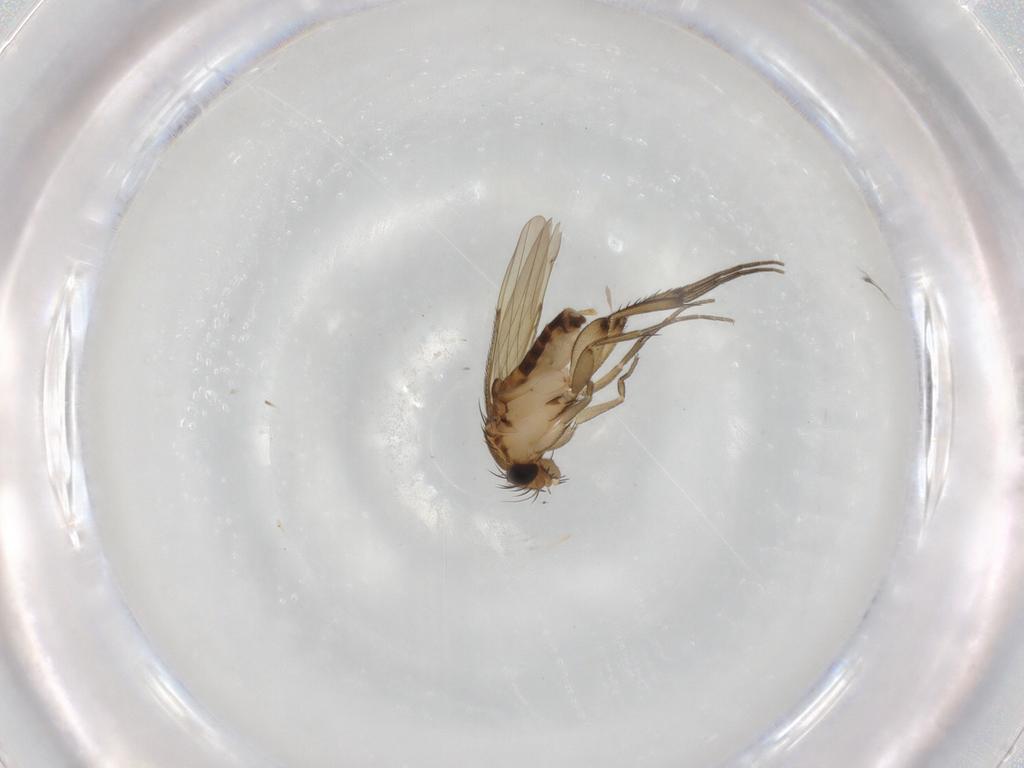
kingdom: Animalia
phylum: Arthropoda
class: Insecta
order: Diptera
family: Phoridae
